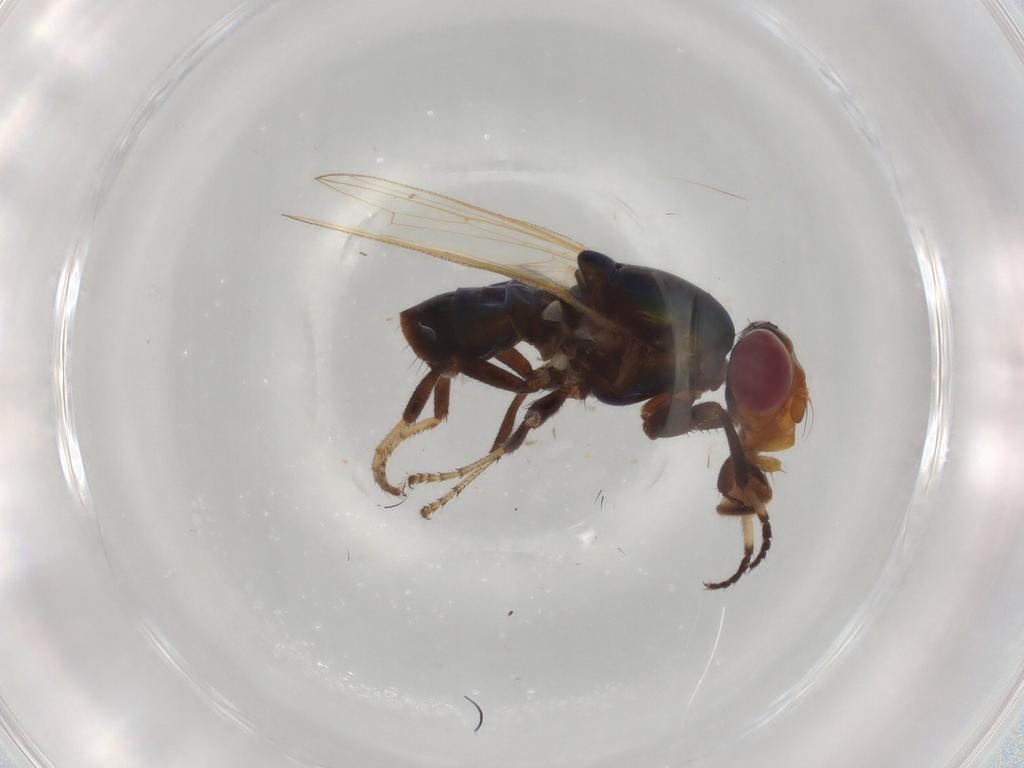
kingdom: Animalia
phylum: Arthropoda
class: Insecta
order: Diptera
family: Ulidiidae
